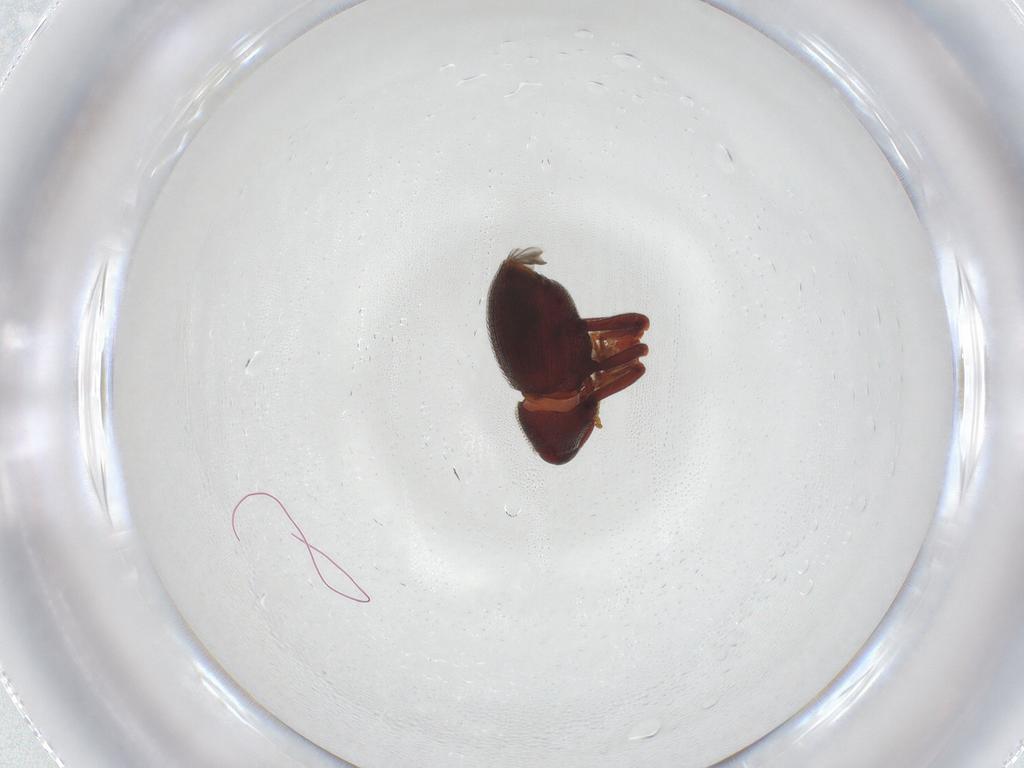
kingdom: Animalia
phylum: Arthropoda
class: Insecta
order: Coleoptera
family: Curculionidae
